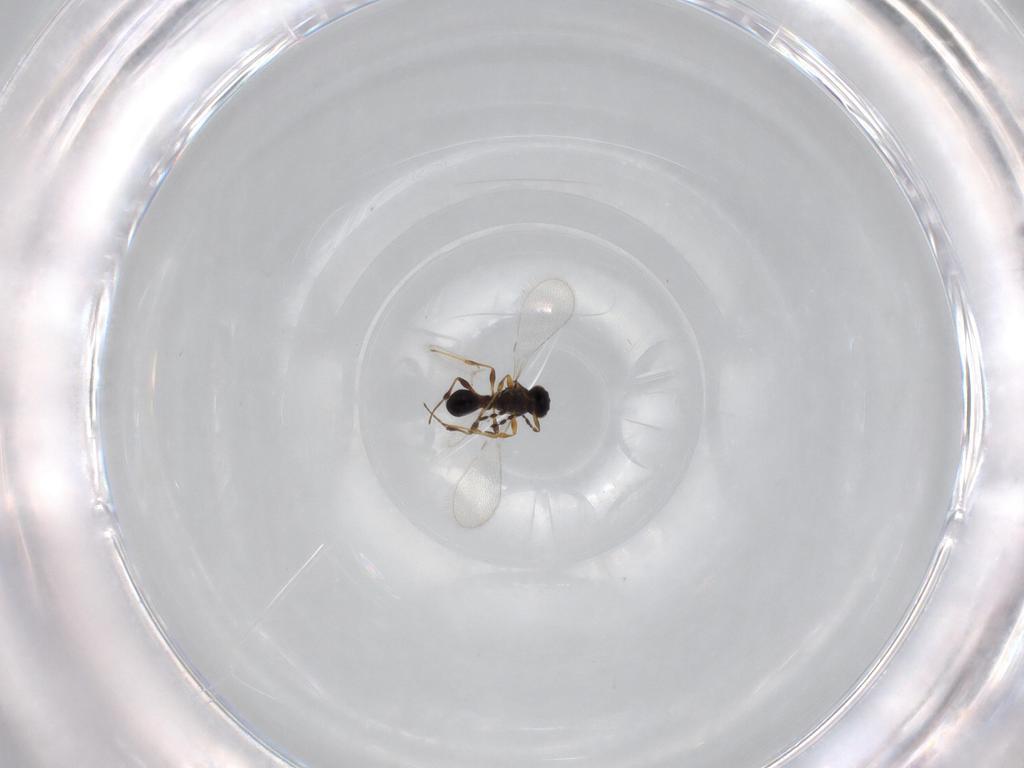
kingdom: Animalia
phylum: Arthropoda
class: Insecta
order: Hymenoptera
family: Platygastridae
